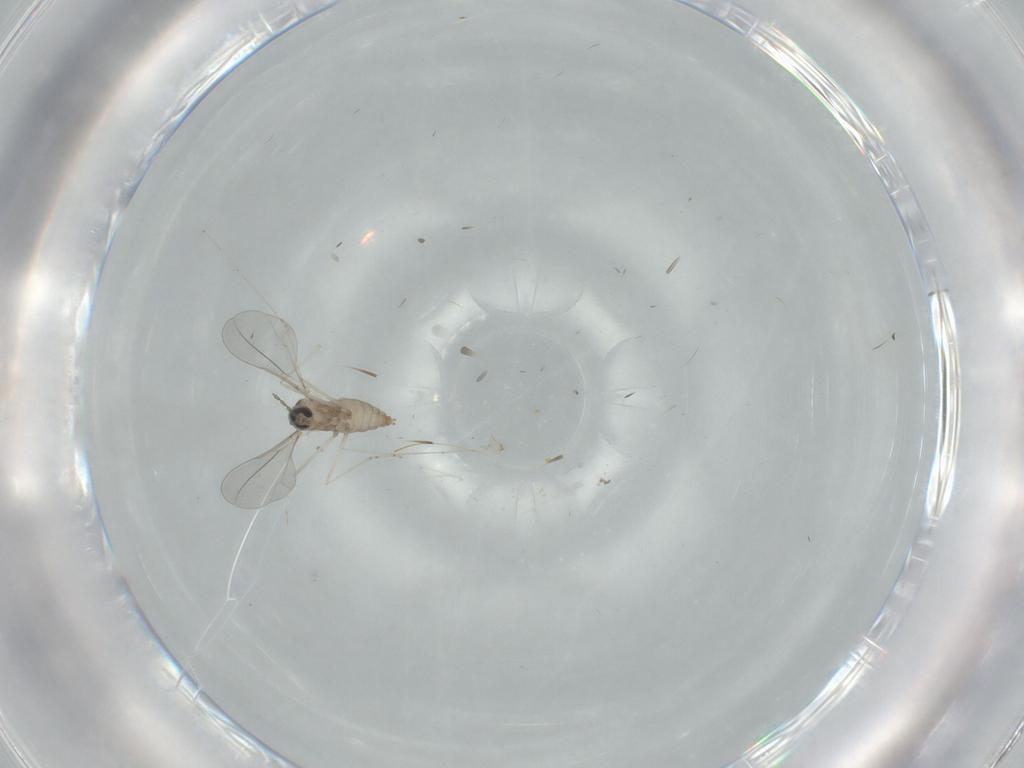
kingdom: Animalia
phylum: Arthropoda
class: Insecta
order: Diptera
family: Cecidomyiidae
